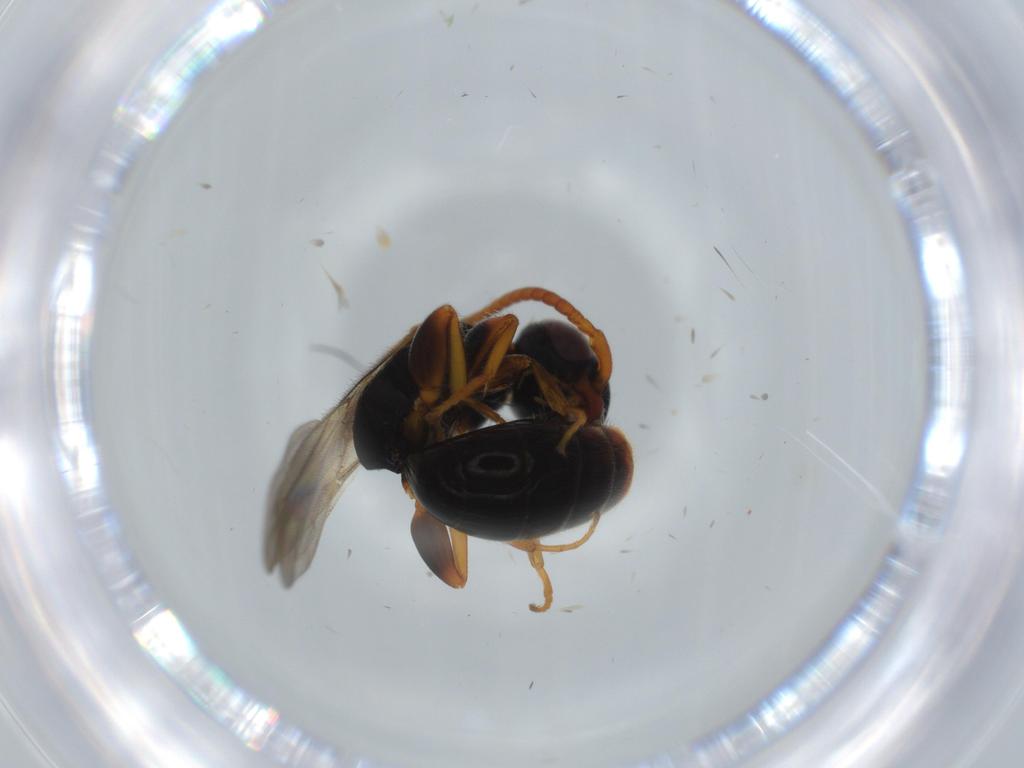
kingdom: Animalia
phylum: Arthropoda
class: Insecta
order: Hymenoptera
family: Bethylidae
